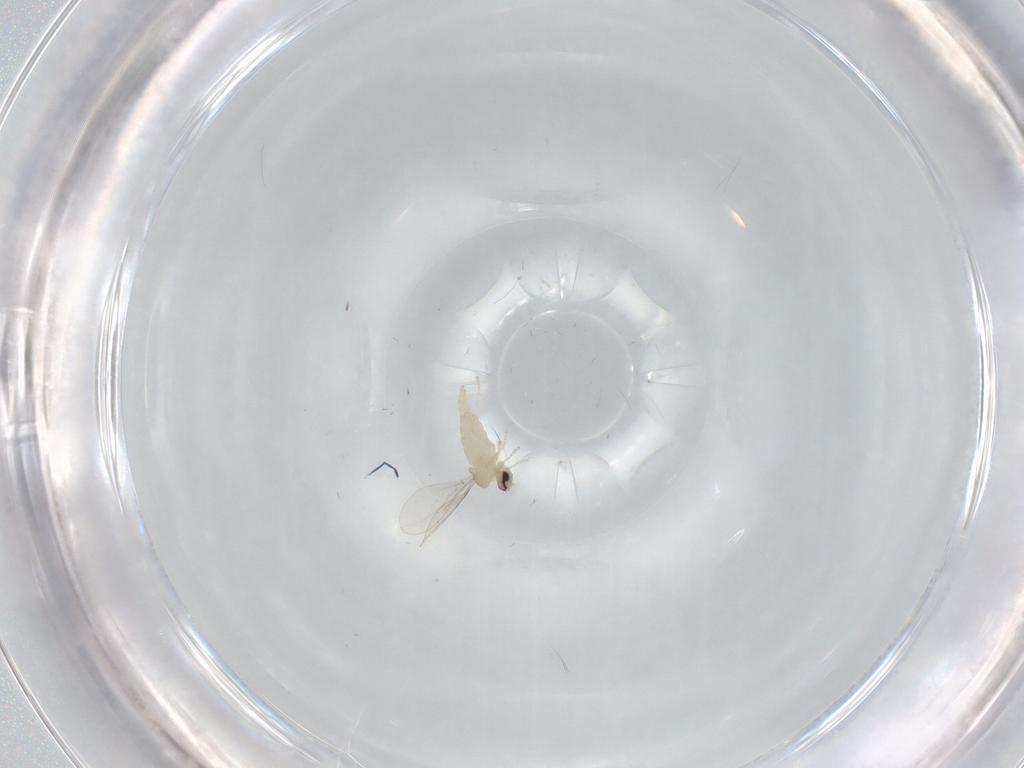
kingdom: Animalia
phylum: Arthropoda
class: Insecta
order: Diptera
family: Cecidomyiidae
